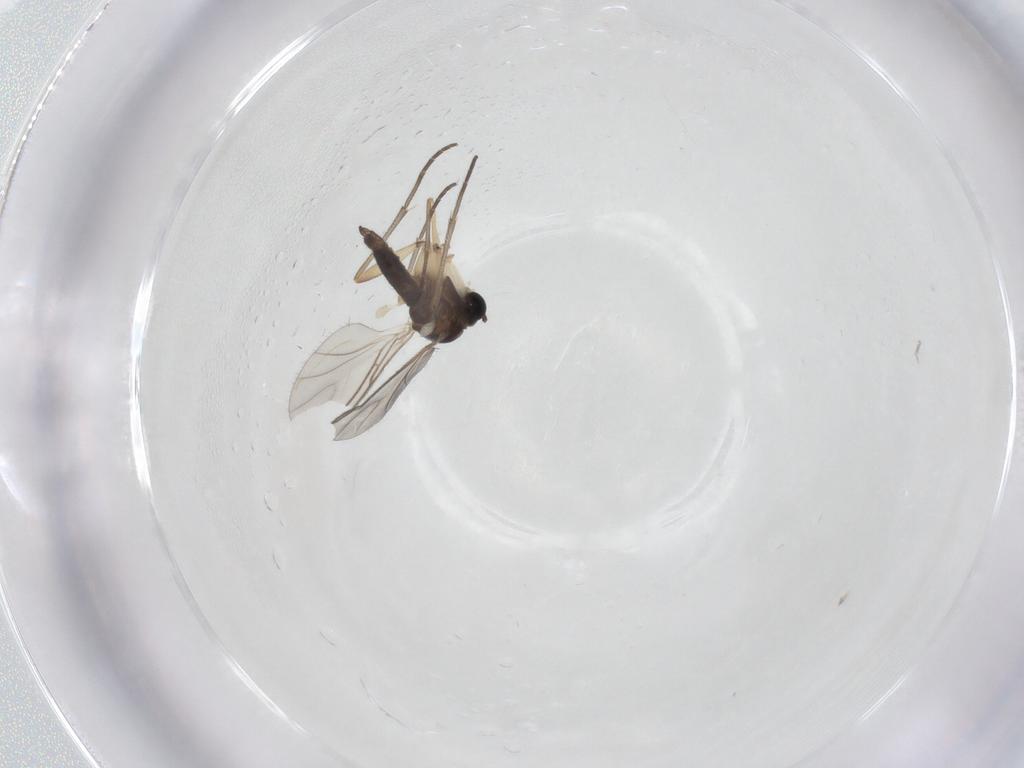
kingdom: Animalia
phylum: Arthropoda
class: Insecta
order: Diptera
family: Sciaridae
